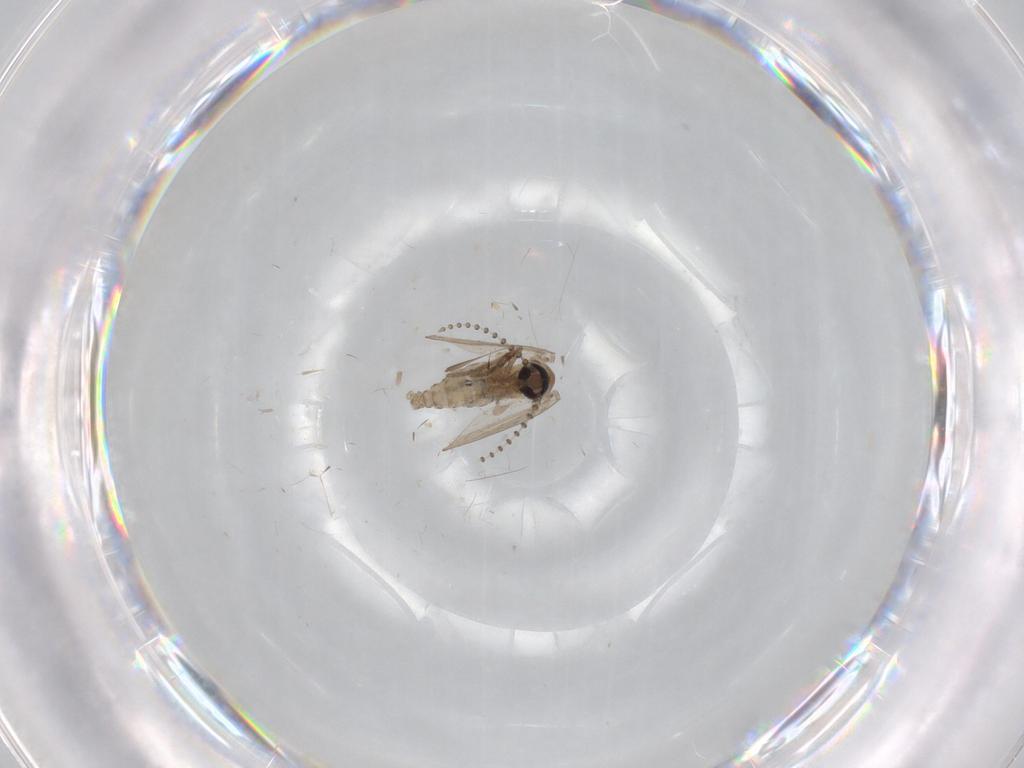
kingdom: Animalia
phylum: Arthropoda
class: Insecta
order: Diptera
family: Psychodidae
